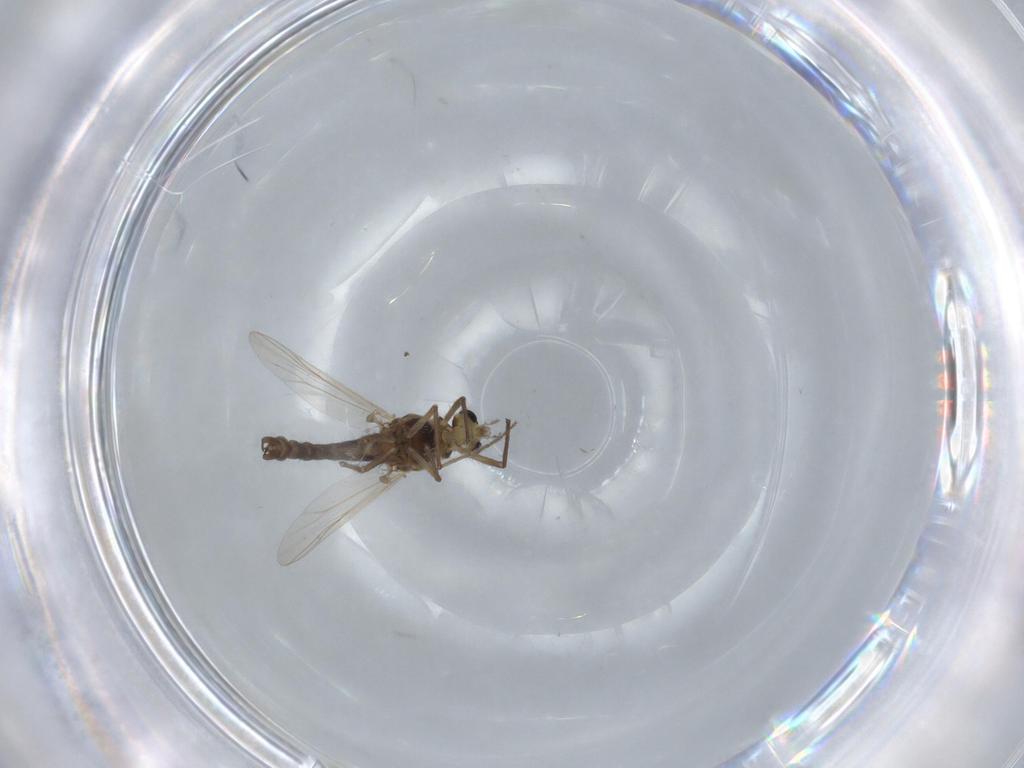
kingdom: Animalia
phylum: Arthropoda
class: Insecta
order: Diptera
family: Chironomidae
